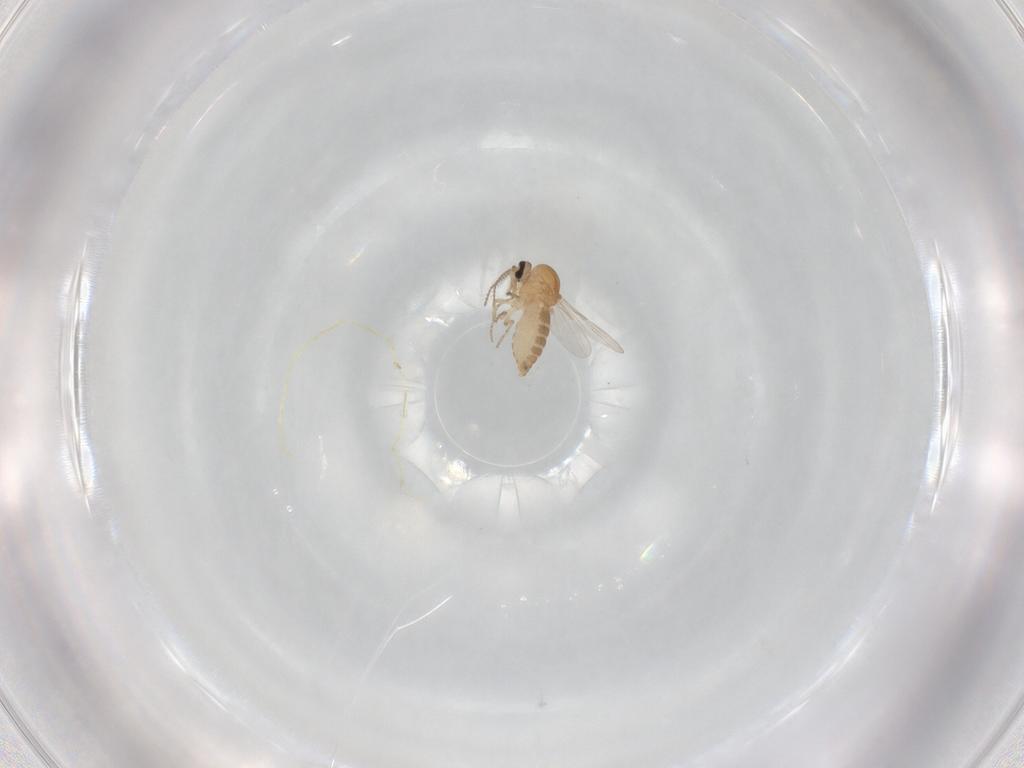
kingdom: Animalia
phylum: Arthropoda
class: Insecta
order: Diptera
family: Ceratopogonidae
